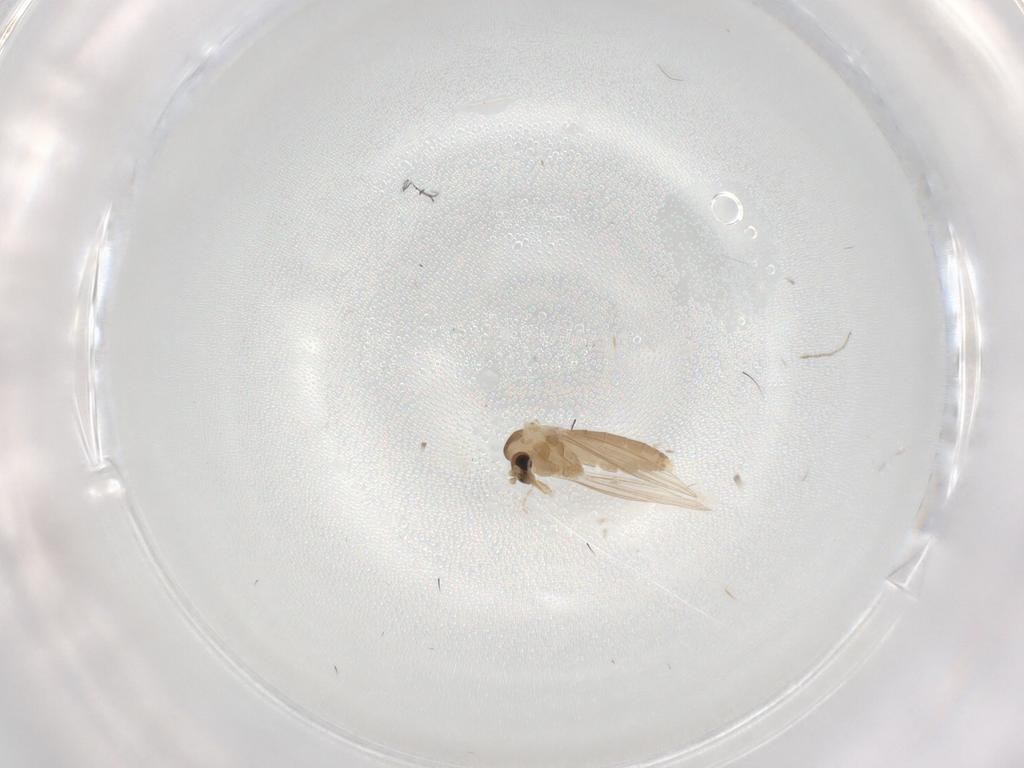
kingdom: Animalia
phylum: Arthropoda
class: Insecta
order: Diptera
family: Psychodidae
